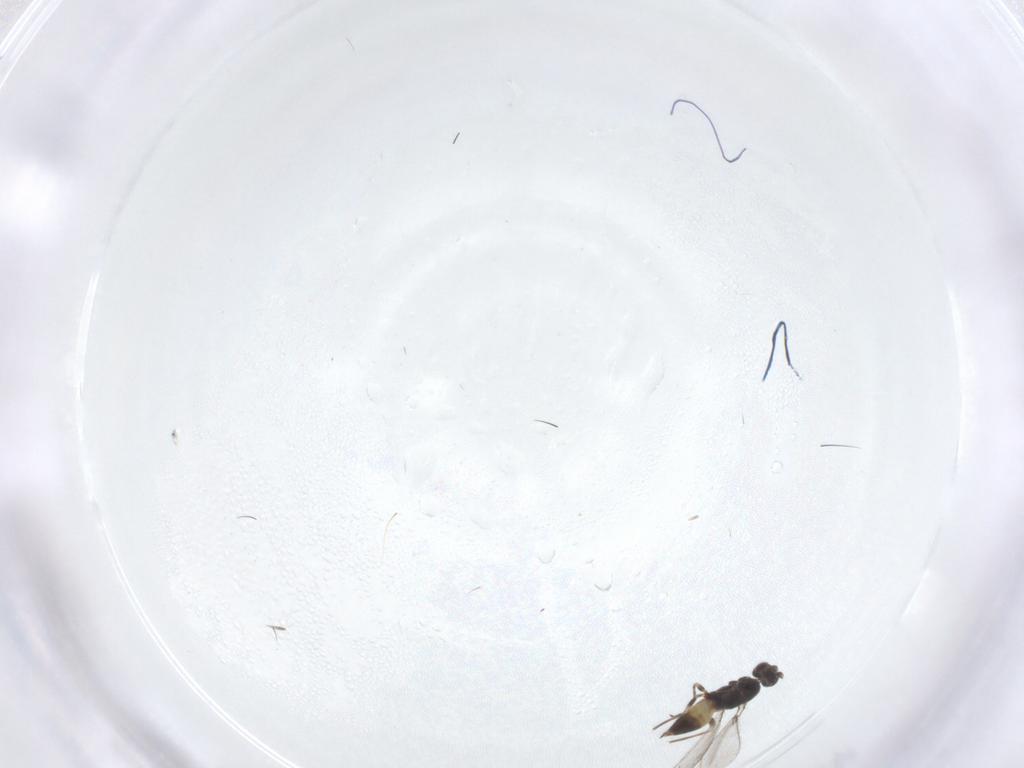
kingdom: Animalia
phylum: Arthropoda
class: Insecta
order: Hymenoptera
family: Mymaridae
